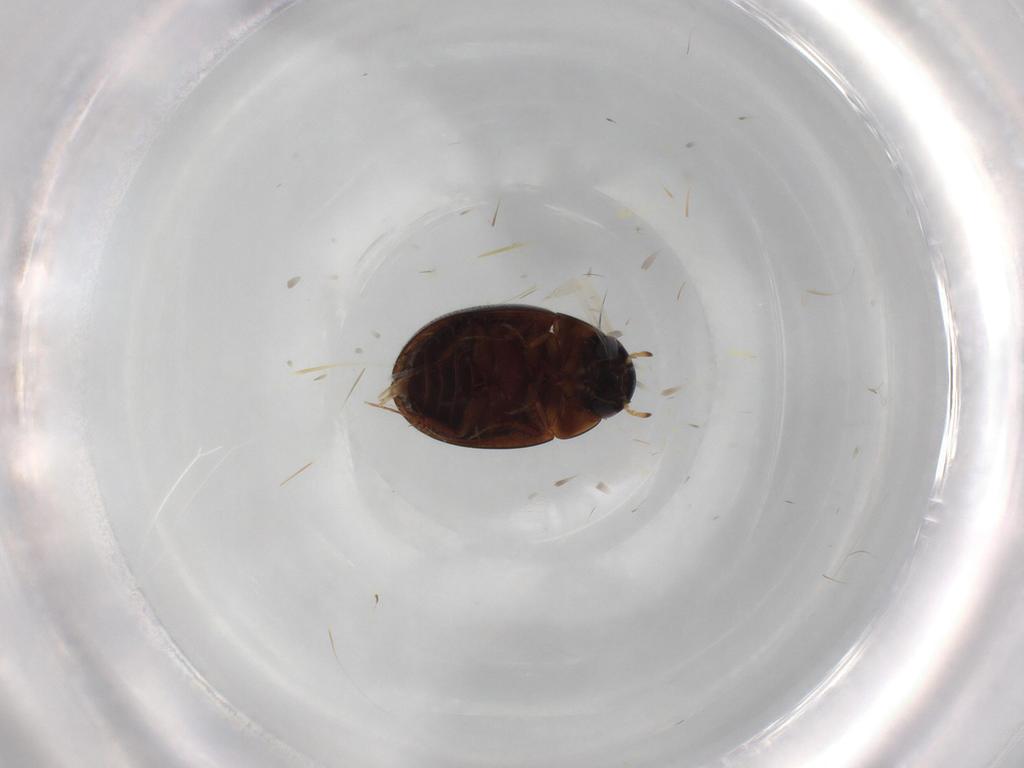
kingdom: Animalia
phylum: Arthropoda
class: Insecta
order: Coleoptera
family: Hydrophilidae
